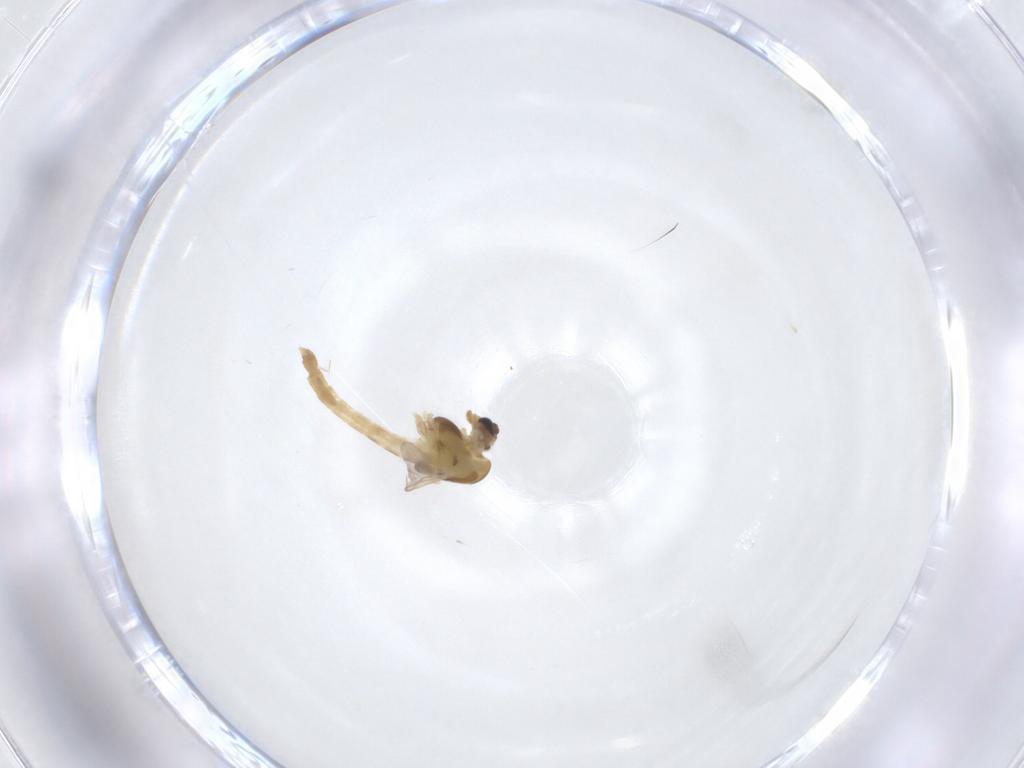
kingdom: Animalia
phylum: Arthropoda
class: Insecta
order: Diptera
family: Chironomidae
